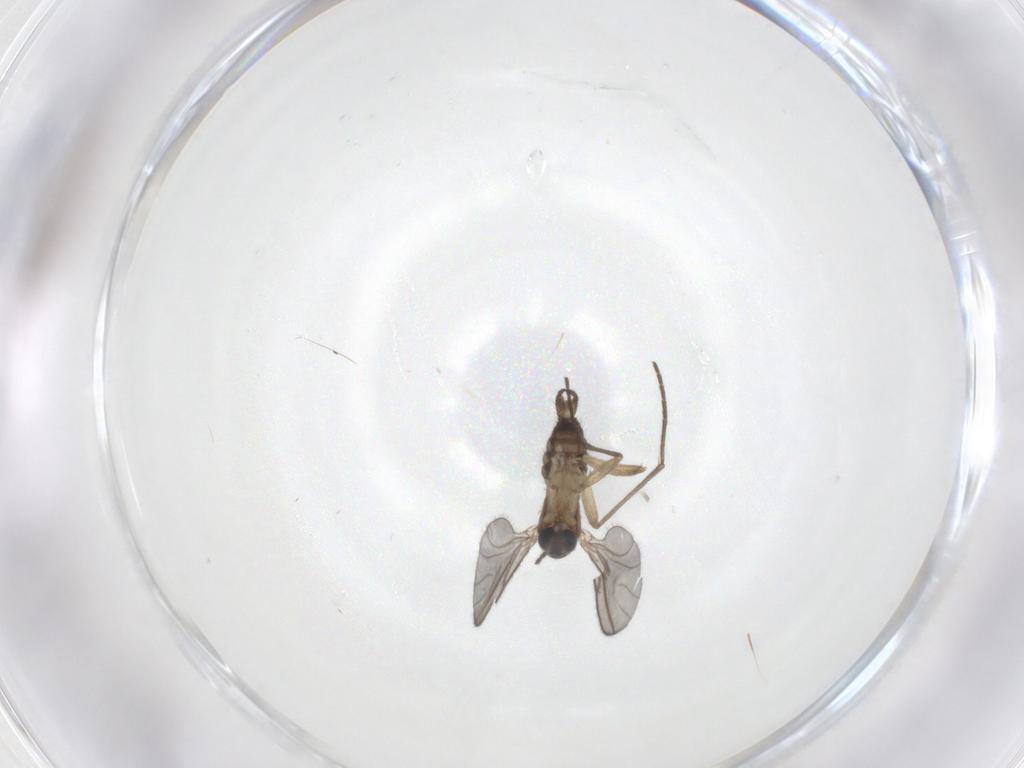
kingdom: Animalia
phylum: Arthropoda
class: Insecta
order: Diptera
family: Sciaridae
